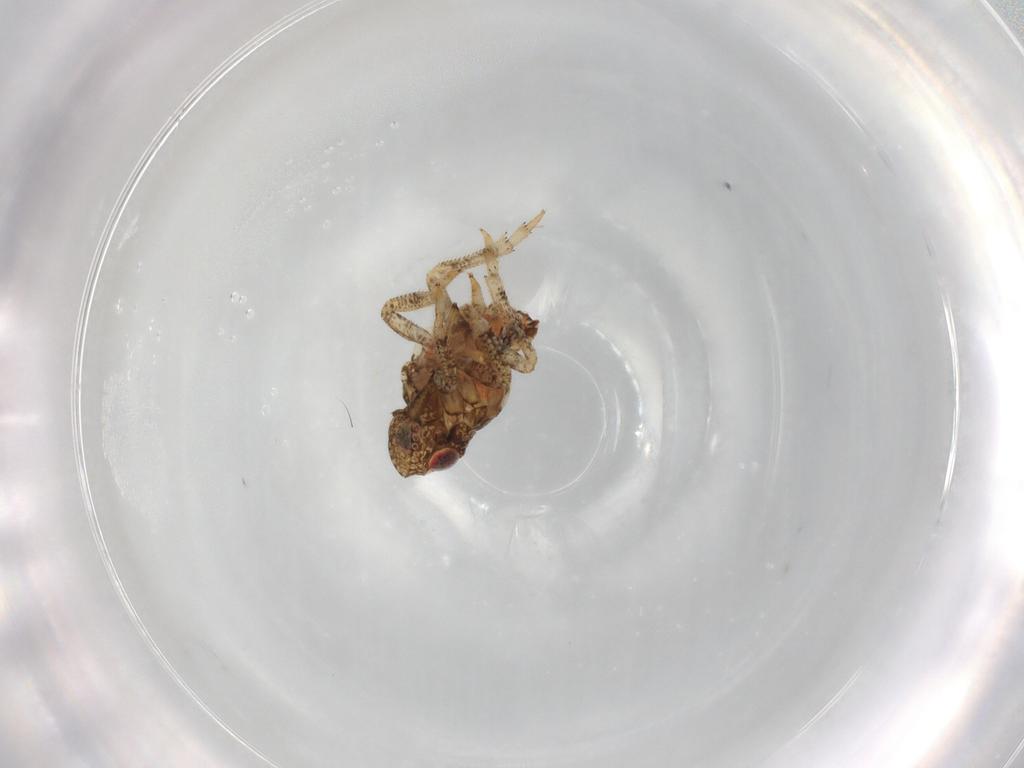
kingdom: Animalia
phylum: Arthropoda
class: Insecta
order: Hemiptera
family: Fulgoroidea_incertae_sedis
